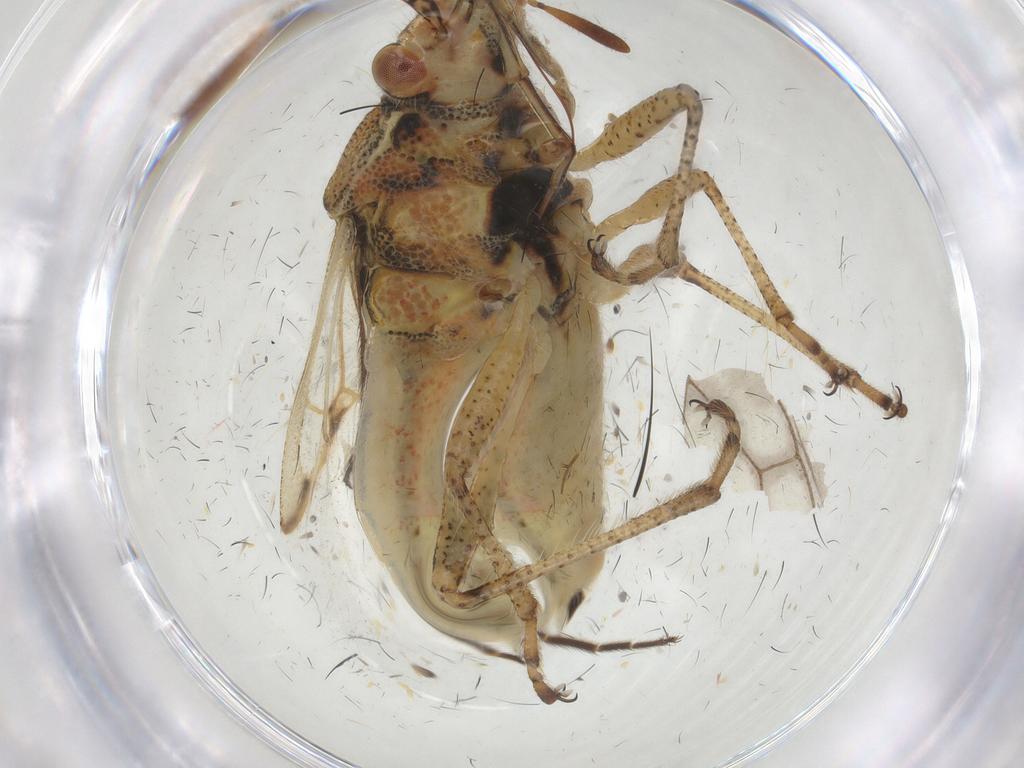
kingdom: Animalia
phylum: Arthropoda
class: Insecta
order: Hemiptera
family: Rhopalidae
